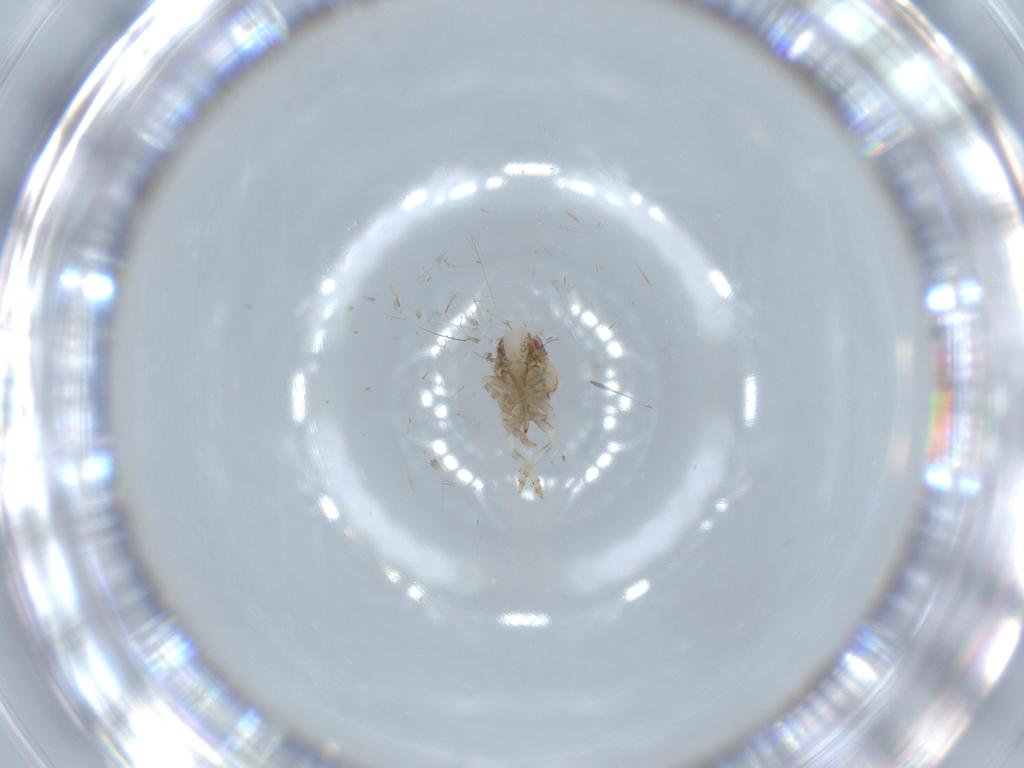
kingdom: Animalia
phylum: Arthropoda
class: Insecta
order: Hemiptera
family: Acanaloniidae
